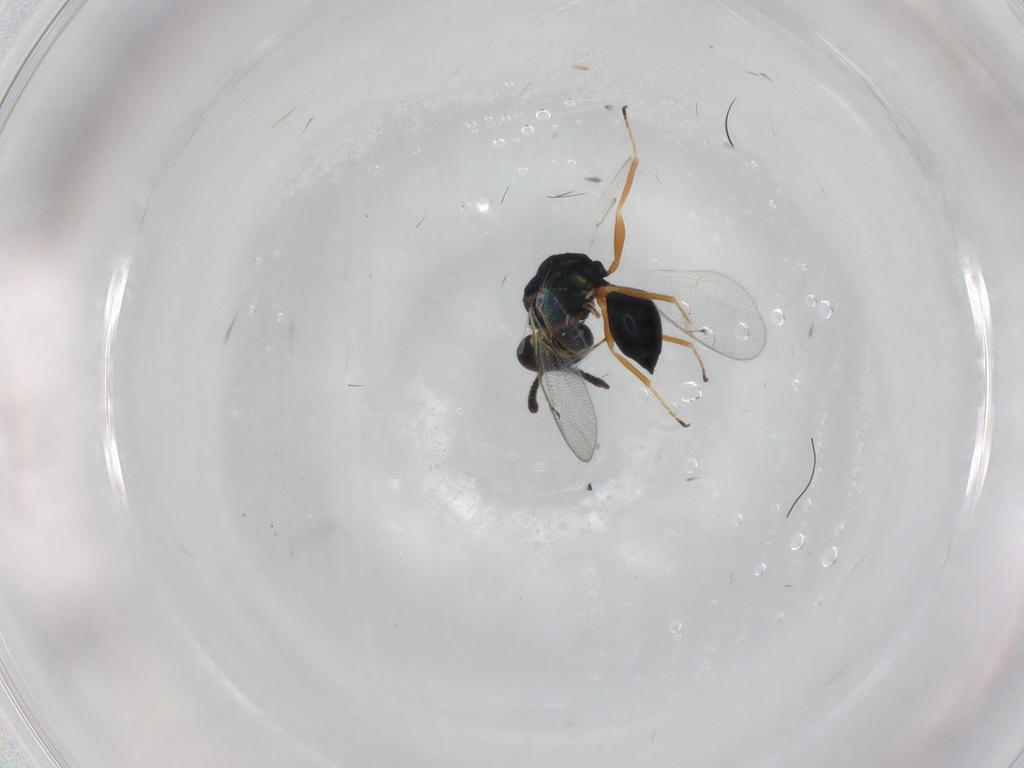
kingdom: Animalia
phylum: Arthropoda
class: Insecta
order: Hymenoptera
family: Pteromalidae
